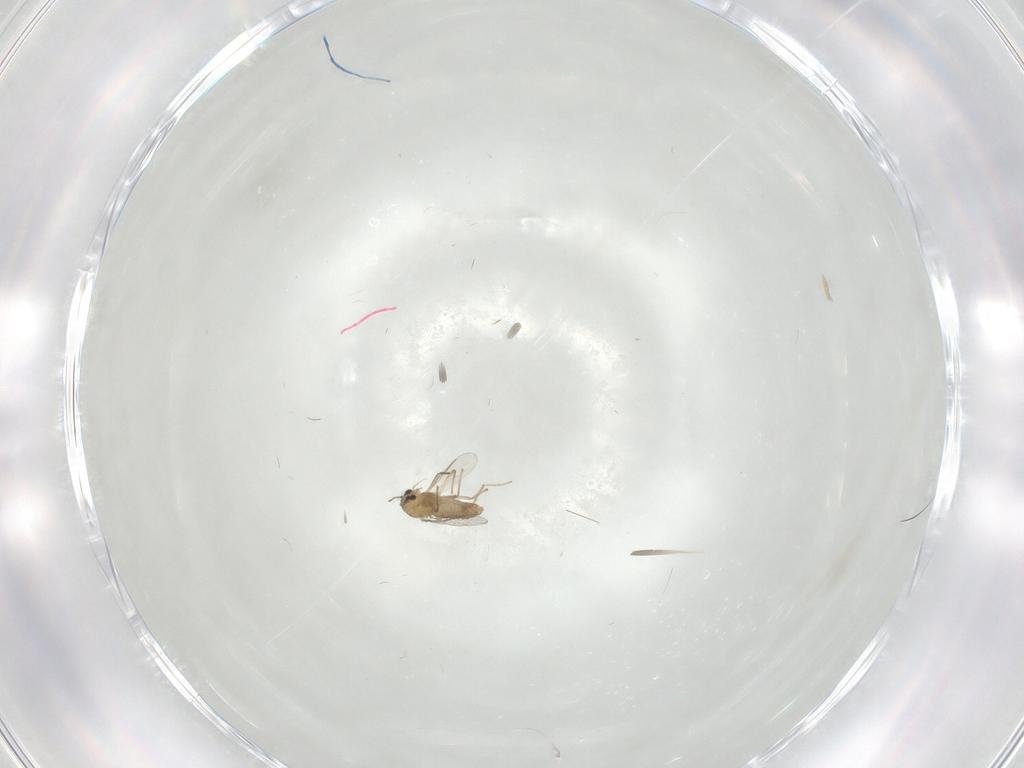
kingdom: Animalia
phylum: Arthropoda
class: Insecta
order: Diptera
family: Chironomidae
